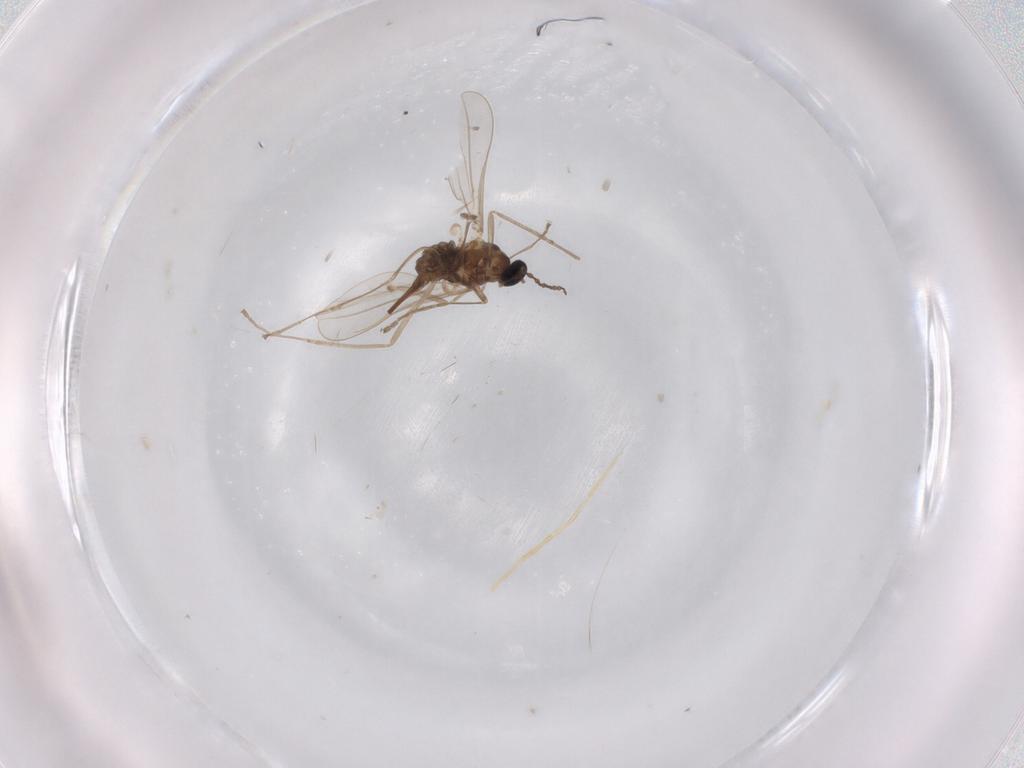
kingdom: Animalia
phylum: Arthropoda
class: Insecta
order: Diptera
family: Cecidomyiidae
